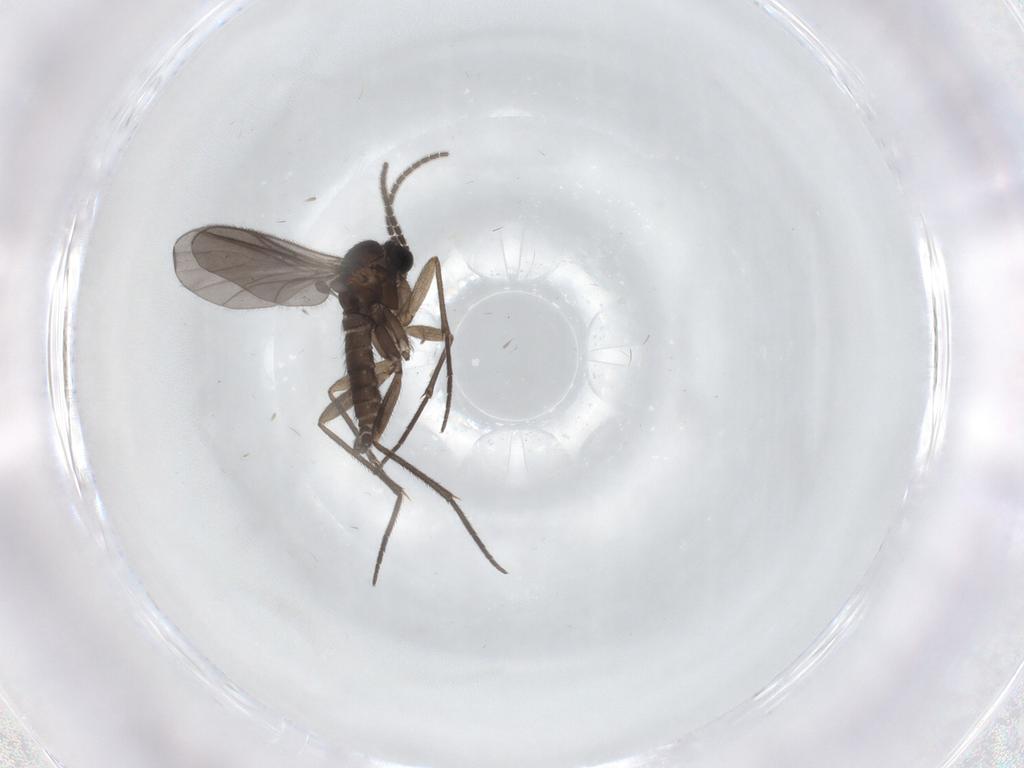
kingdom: Animalia
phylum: Arthropoda
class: Insecta
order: Diptera
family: Sciaridae
